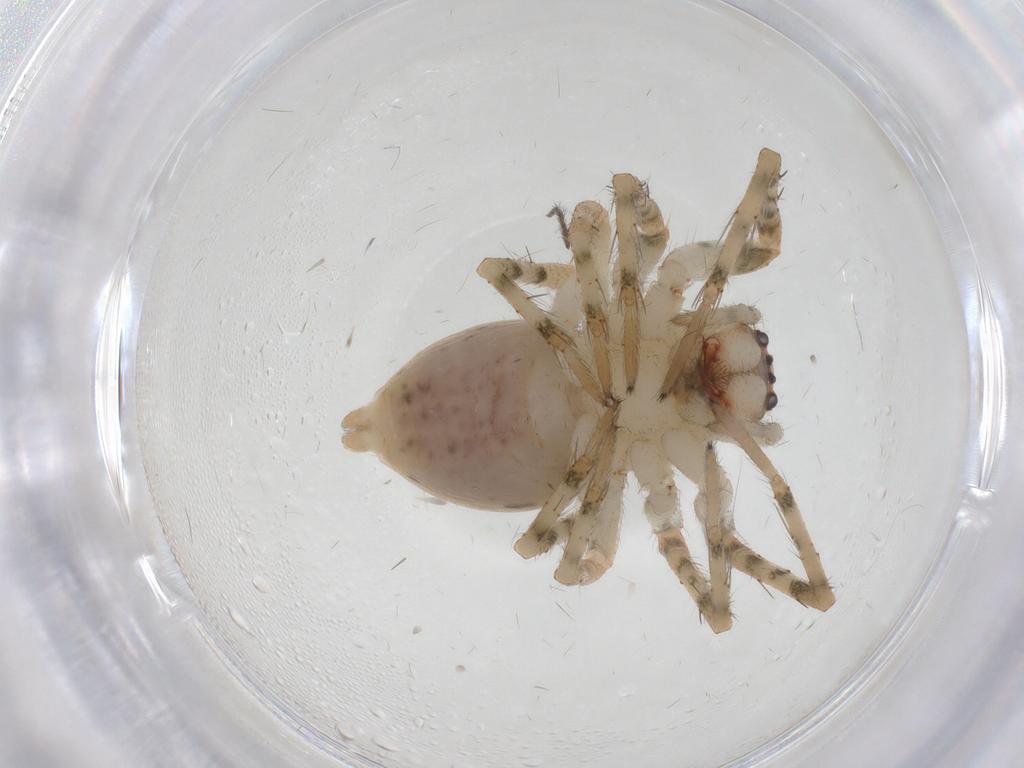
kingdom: Animalia
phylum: Arthropoda
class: Arachnida
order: Araneae
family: Dictynidae
